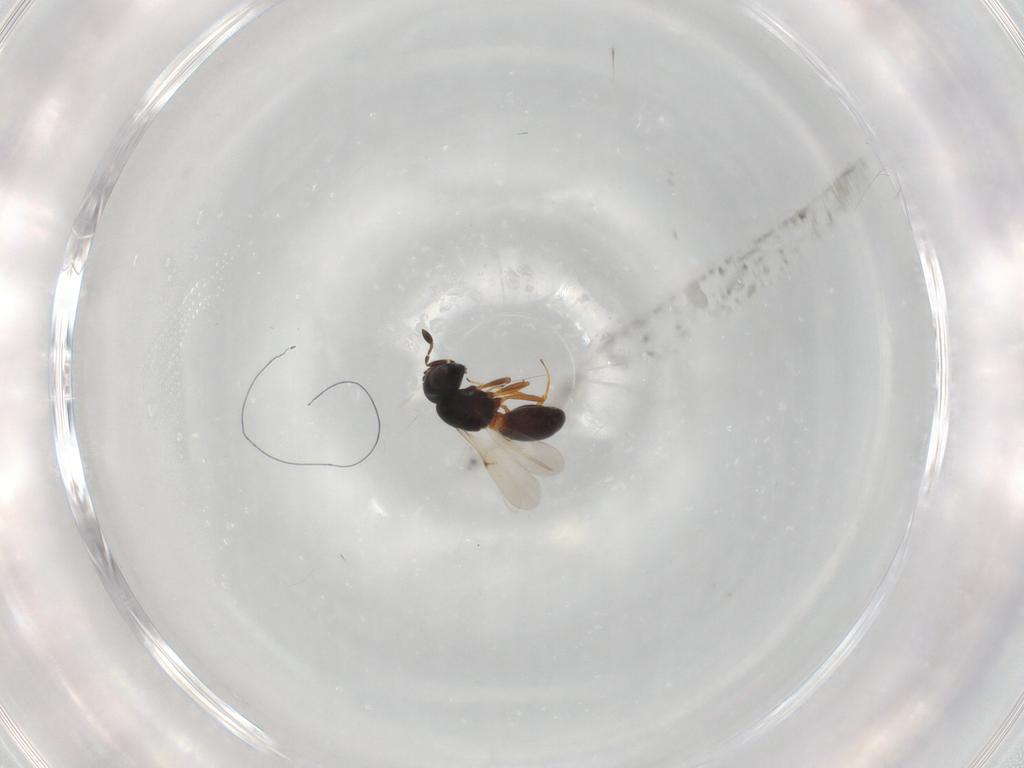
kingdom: Animalia
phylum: Arthropoda
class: Insecta
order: Hymenoptera
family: Scelionidae
